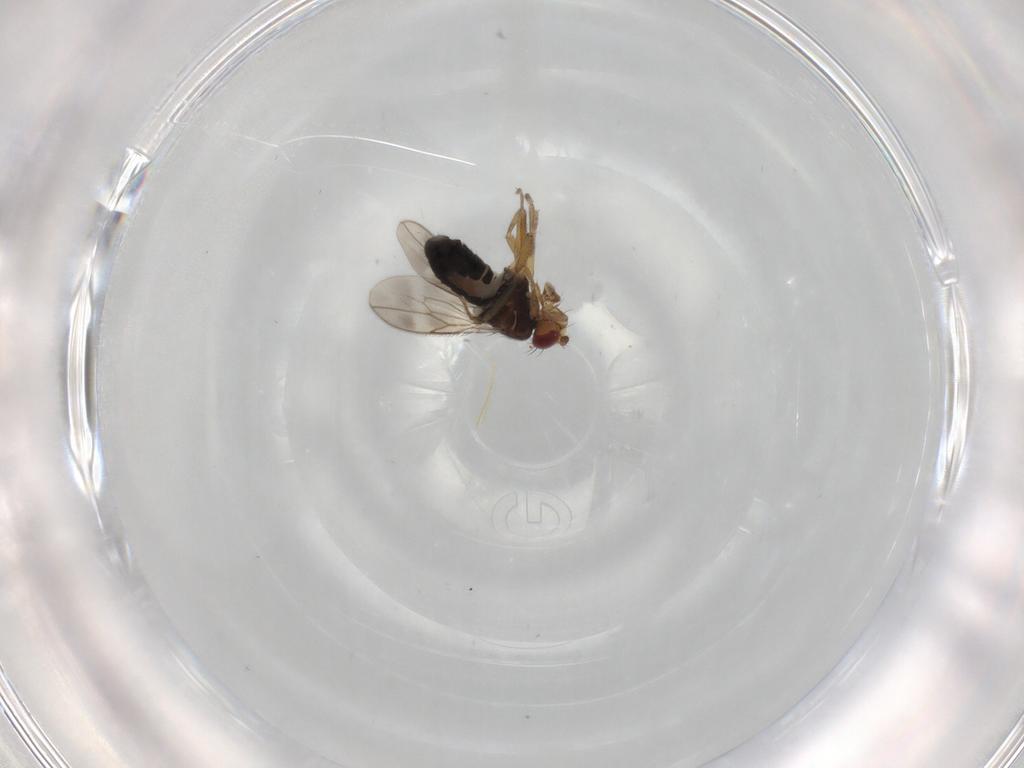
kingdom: Animalia
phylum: Arthropoda
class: Insecta
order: Diptera
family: Sphaeroceridae
